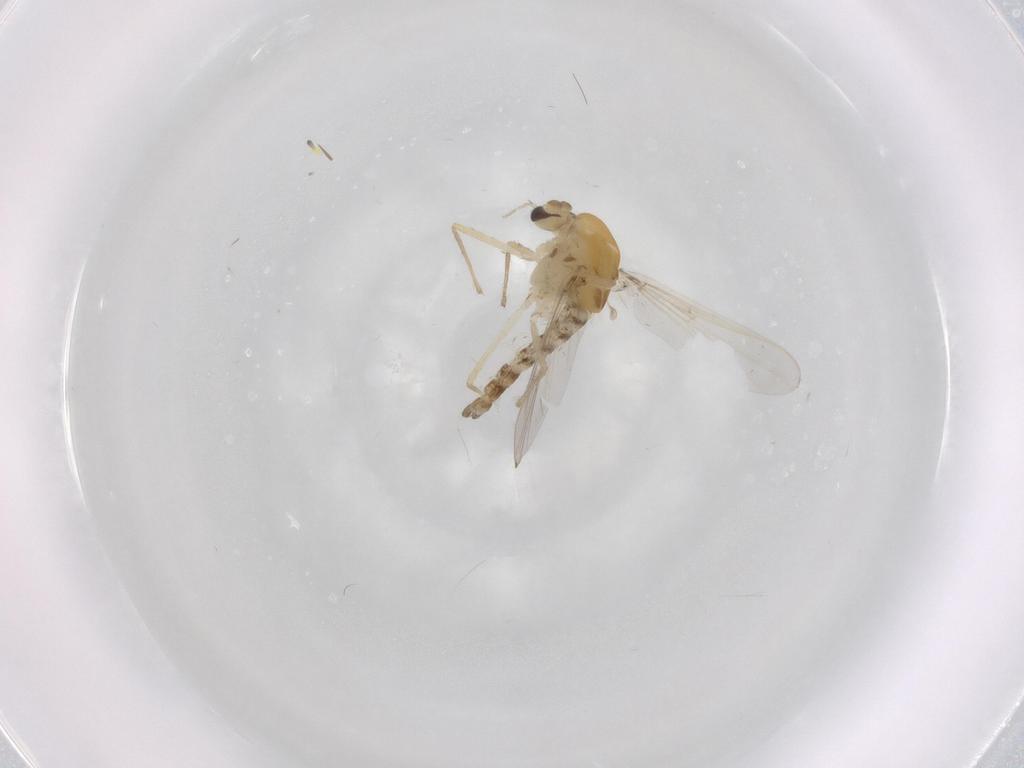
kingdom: Animalia
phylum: Arthropoda
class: Insecta
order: Diptera
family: Chironomidae
